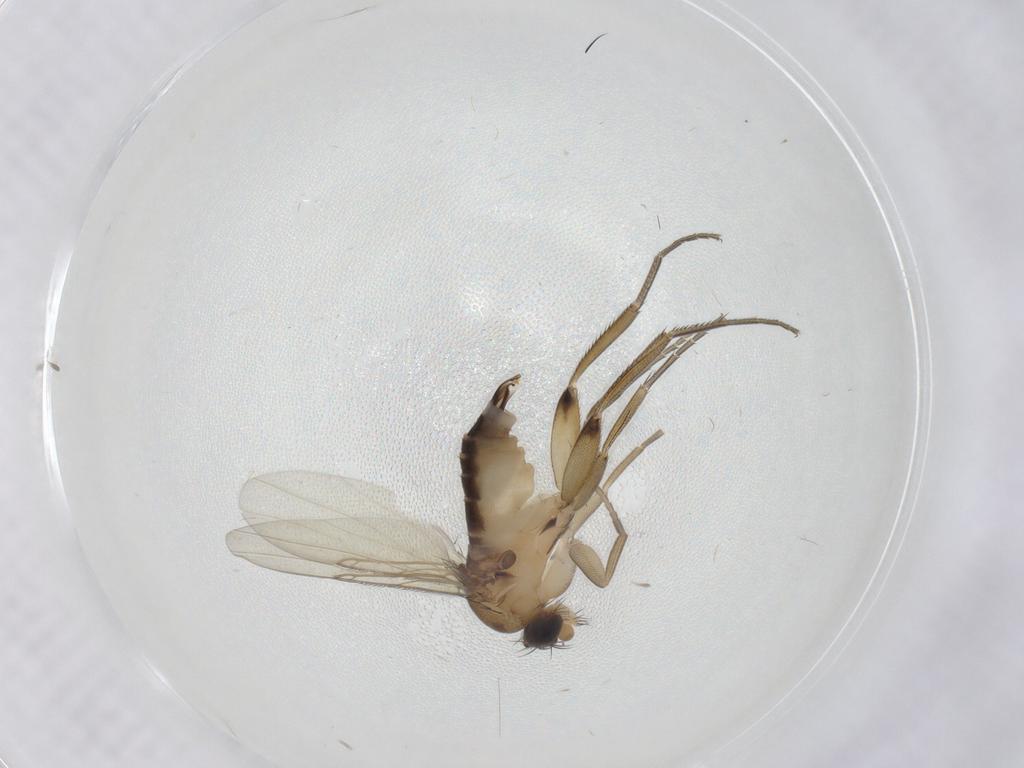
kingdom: Animalia
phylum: Arthropoda
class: Insecta
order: Diptera
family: Phoridae
